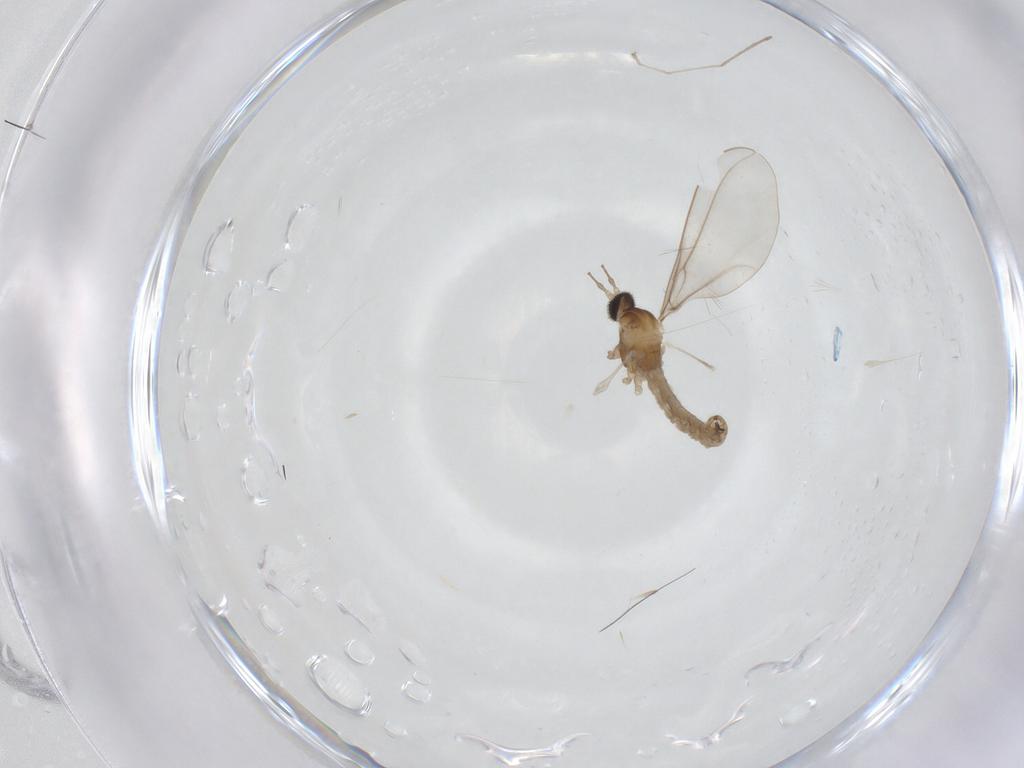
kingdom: Animalia
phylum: Arthropoda
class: Insecta
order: Diptera
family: Cecidomyiidae
